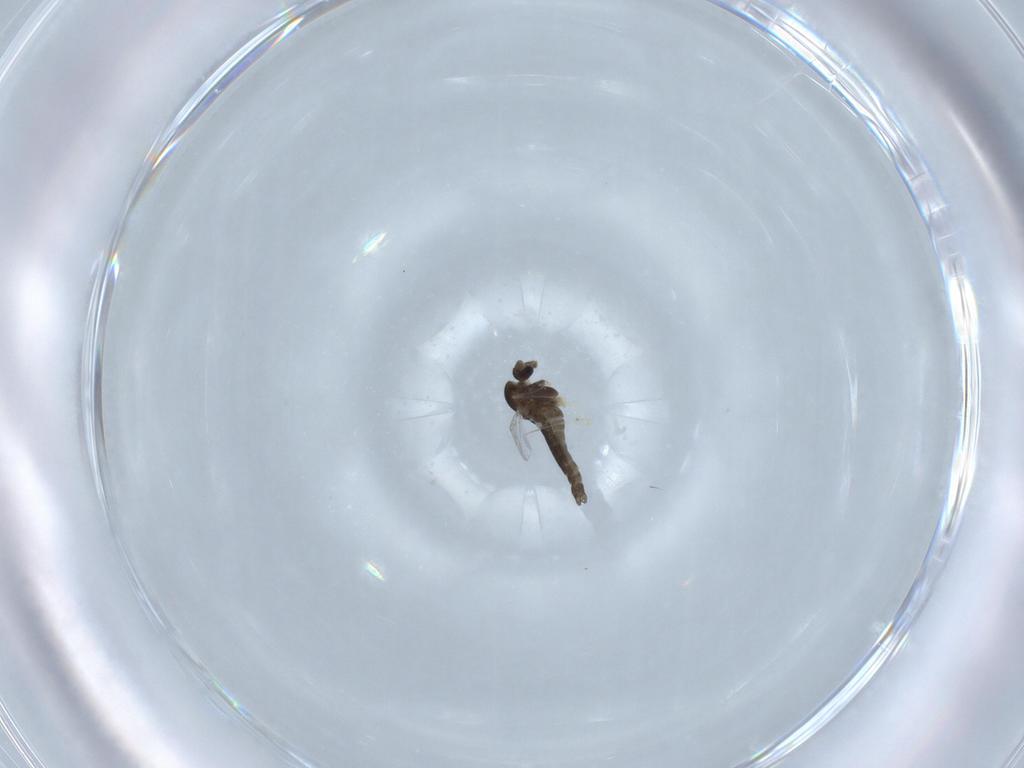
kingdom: Animalia
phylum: Arthropoda
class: Insecta
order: Diptera
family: Chironomidae
